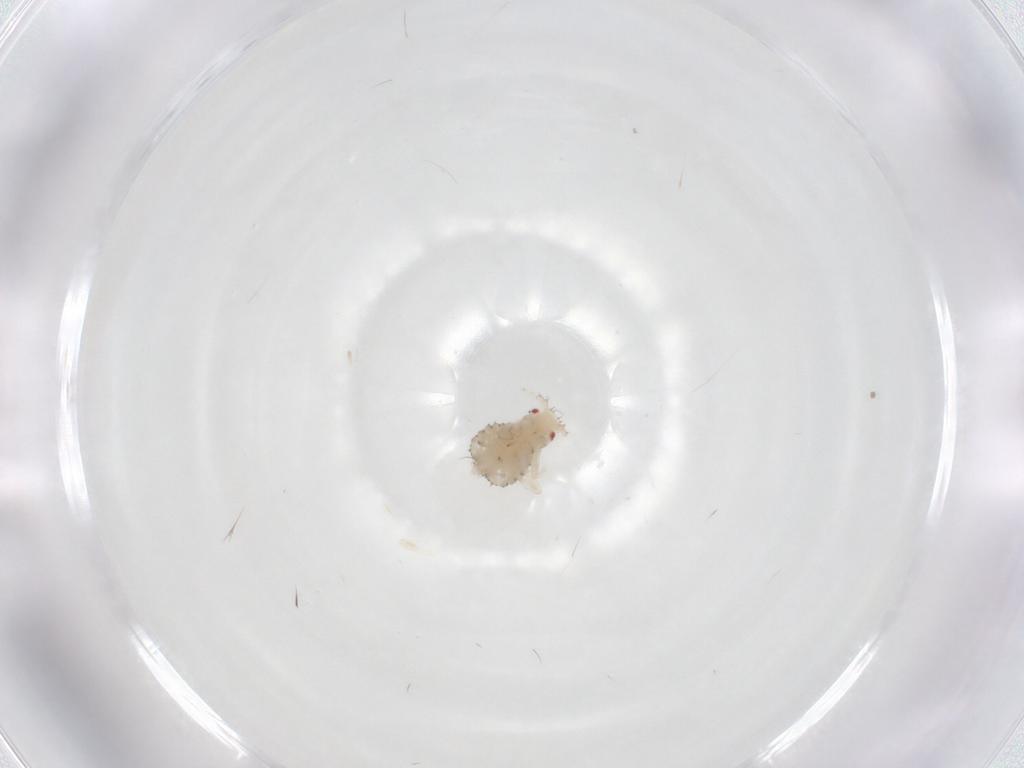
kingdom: Animalia
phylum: Arthropoda
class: Insecta
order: Hemiptera
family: Aphididae
